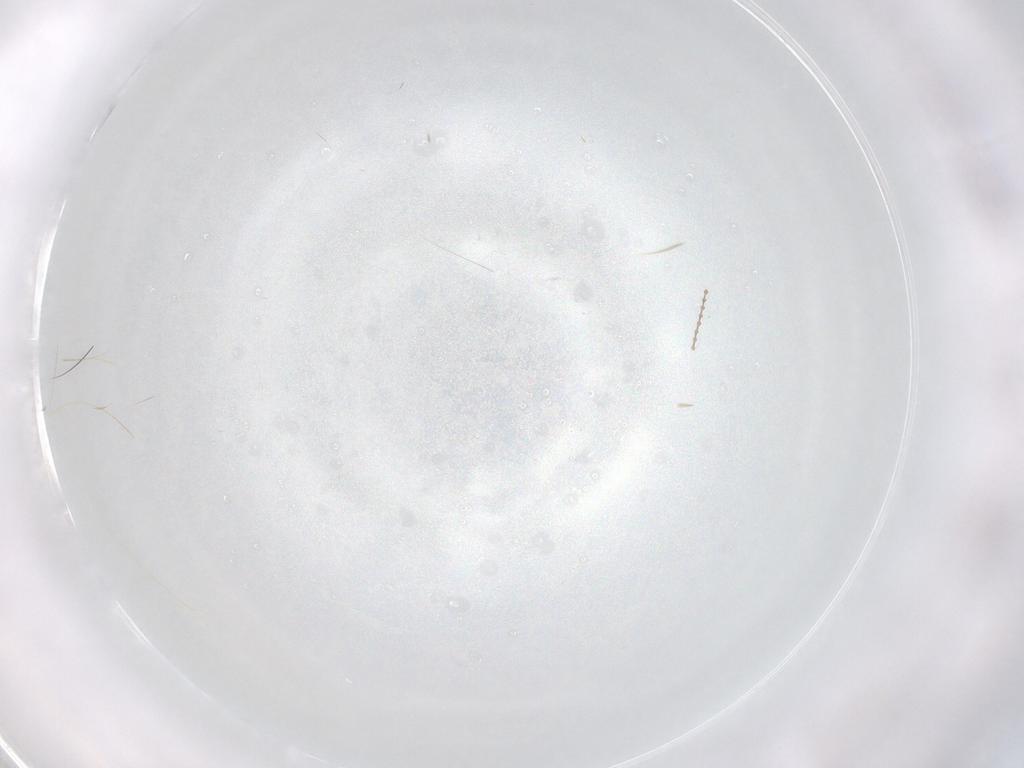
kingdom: Animalia
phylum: Arthropoda
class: Insecta
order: Hymenoptera
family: Eulophidae
